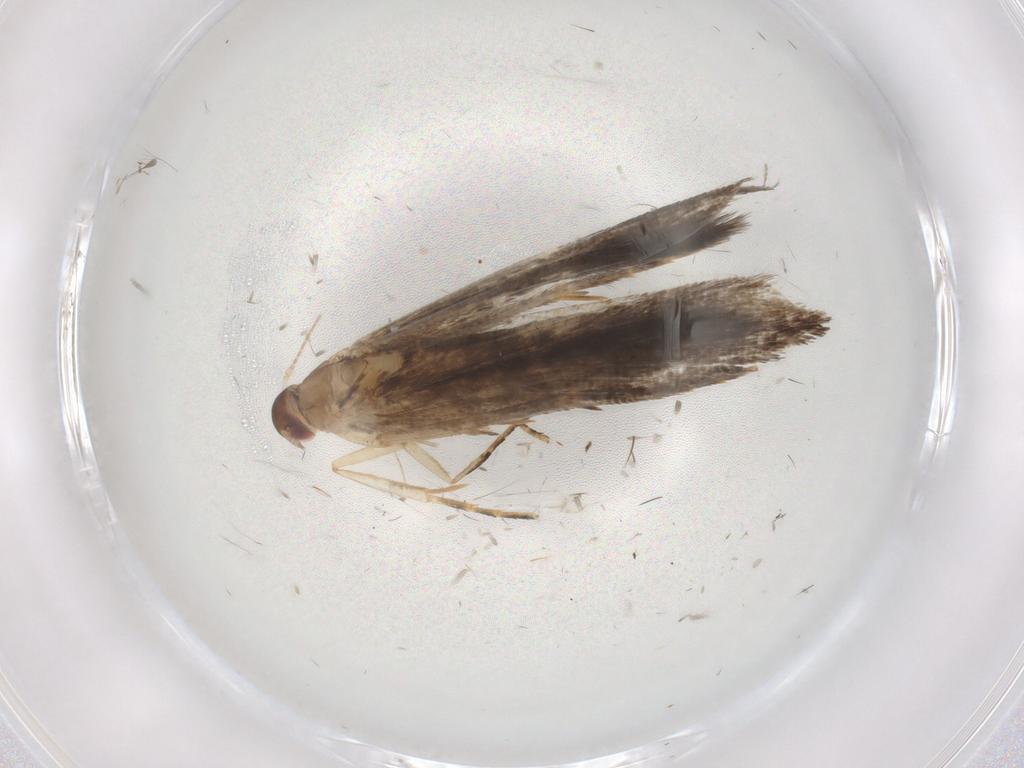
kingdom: Animalia
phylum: Arthropoda
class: Insecta
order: Lepidoptera
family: Gelechiidae
